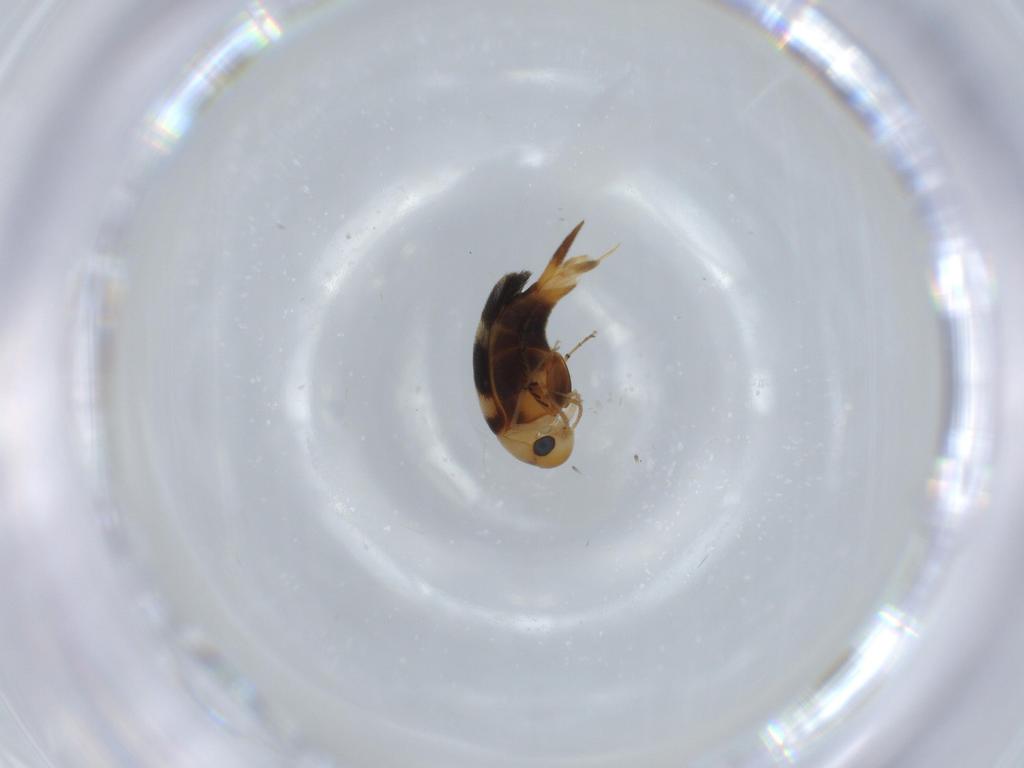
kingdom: Animalia
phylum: Arthropoda
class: Insecta
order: Coleoptera
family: Mordellidae
